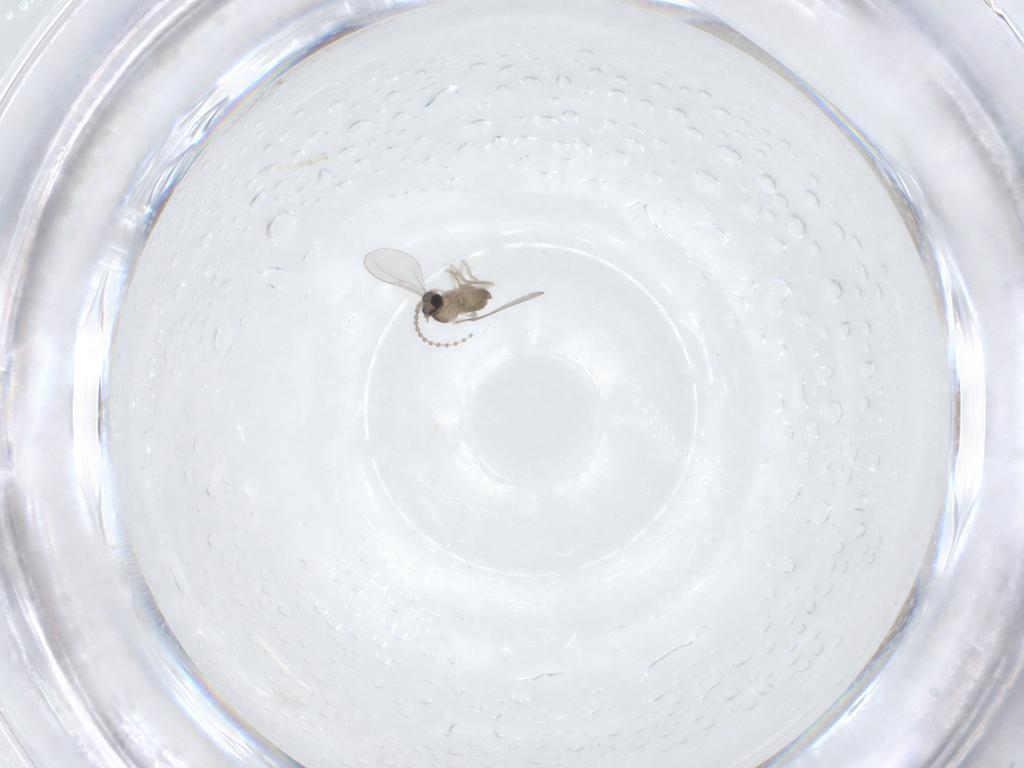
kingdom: Animalia
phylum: Arthropoda
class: Insecta
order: Diptera
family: Cecidomyiidae
